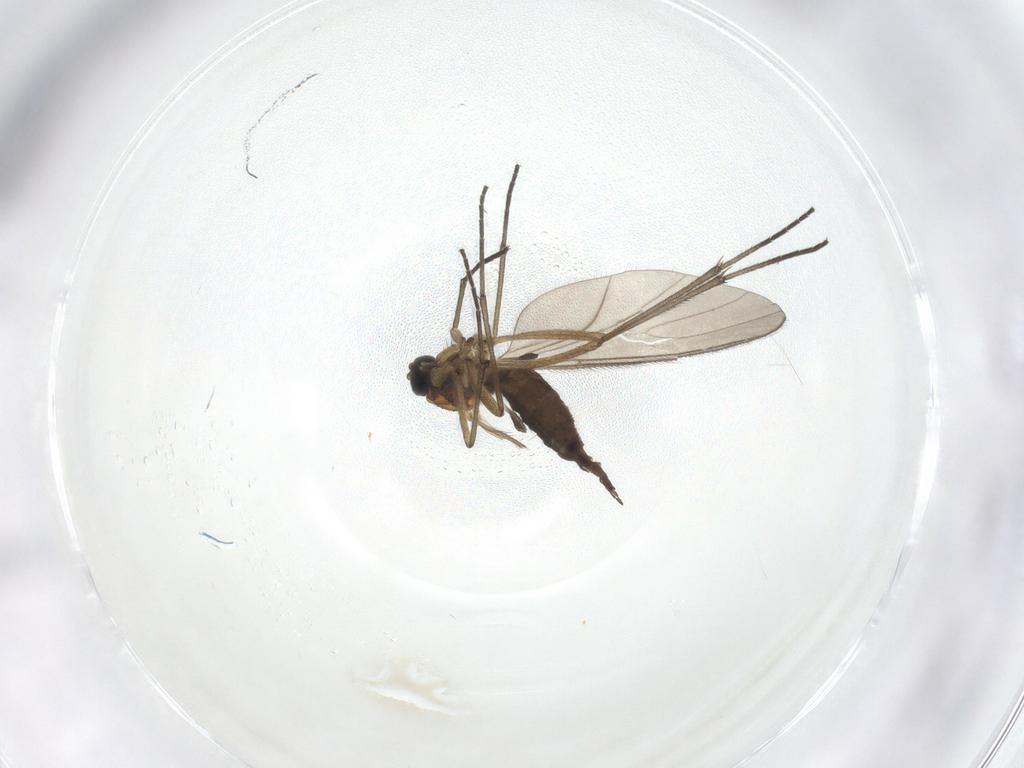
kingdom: Animalia
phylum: Arthropoda
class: Insecta
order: Diptera
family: Sciaridae
